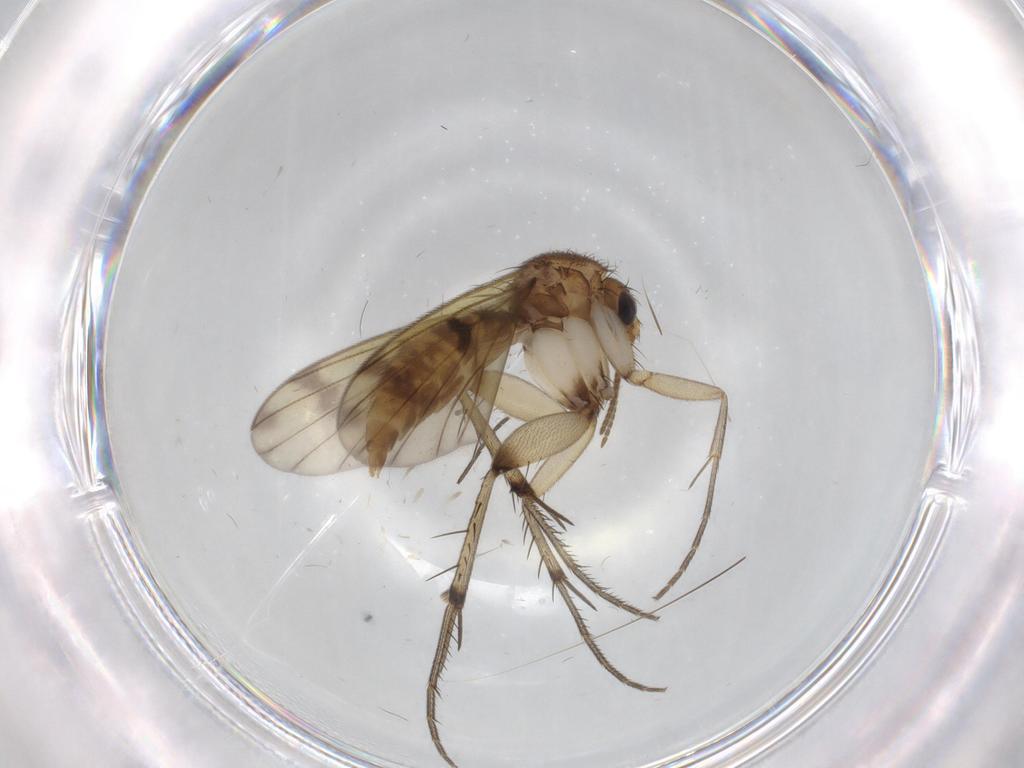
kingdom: Animalia
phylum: Arthropoda
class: Insecta
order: Diptera
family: Mycetophilidae
